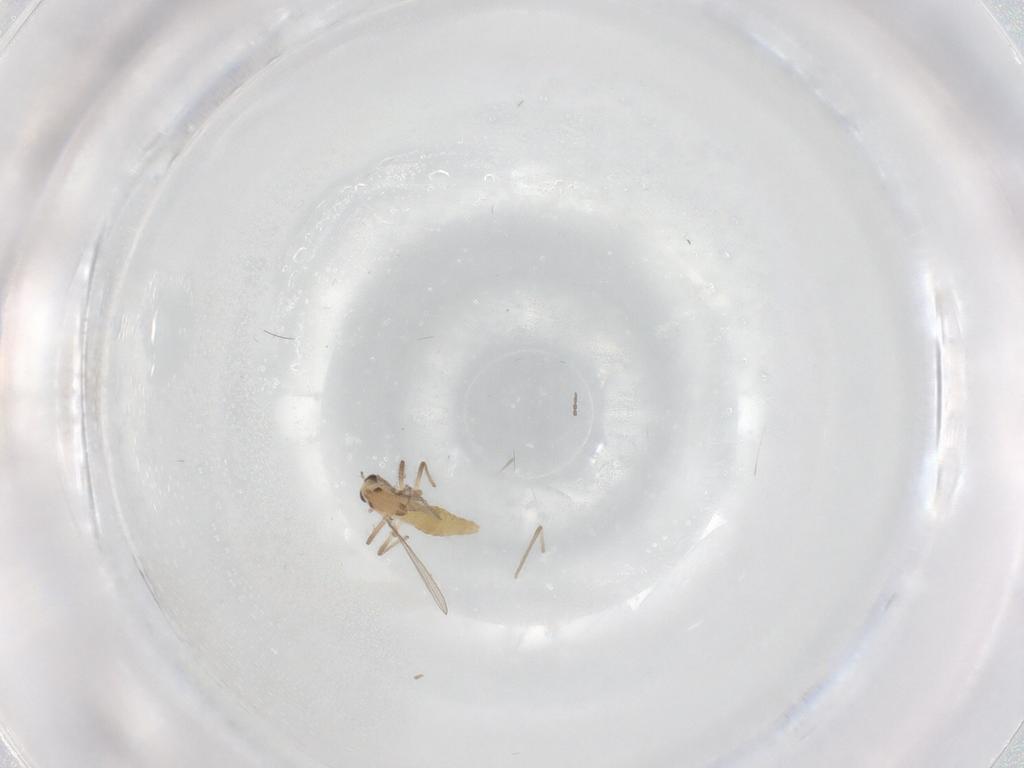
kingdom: Animalia
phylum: Arthropoda
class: Insecta
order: Diptera
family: Chironomidae
